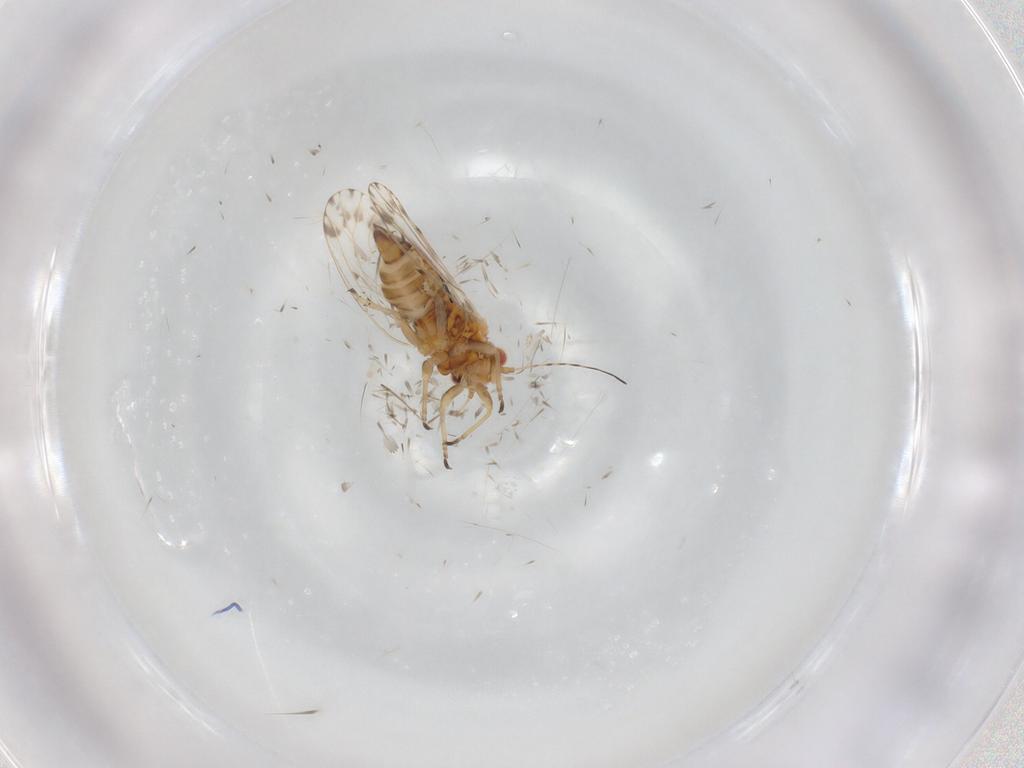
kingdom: Animalia
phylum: Arthropoda
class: Insecta
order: Hemiptera
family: Psyllidae
